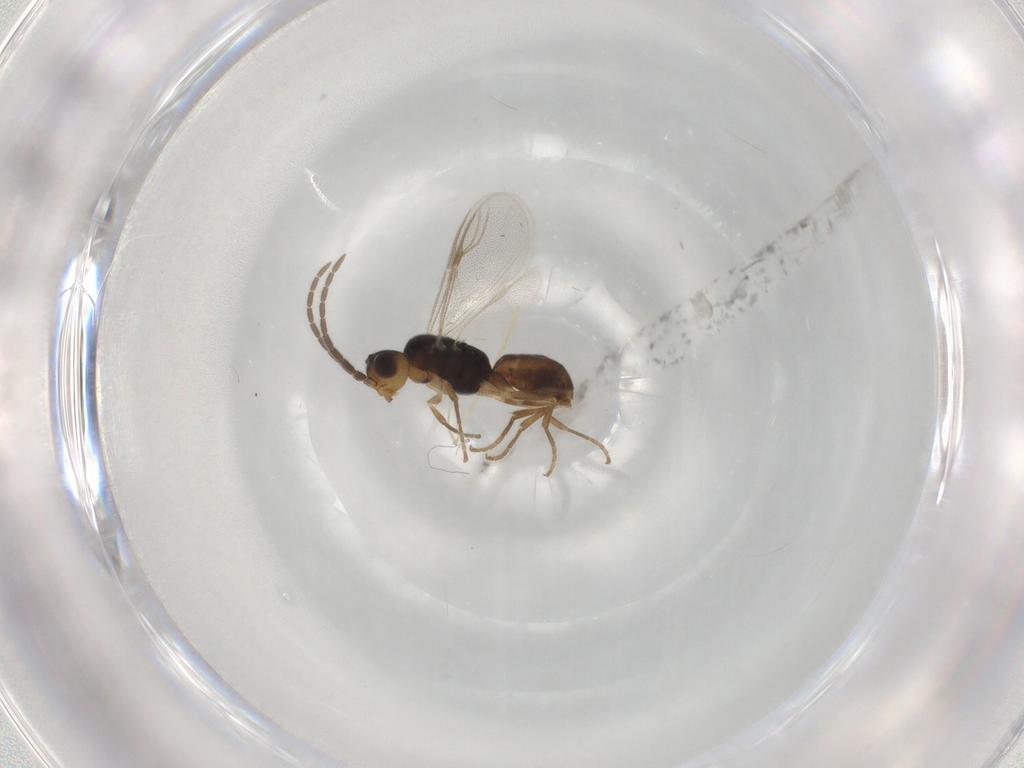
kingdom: Animalia
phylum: Arthropoda
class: Insecta
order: Hymenoptera
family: Dryinidae
